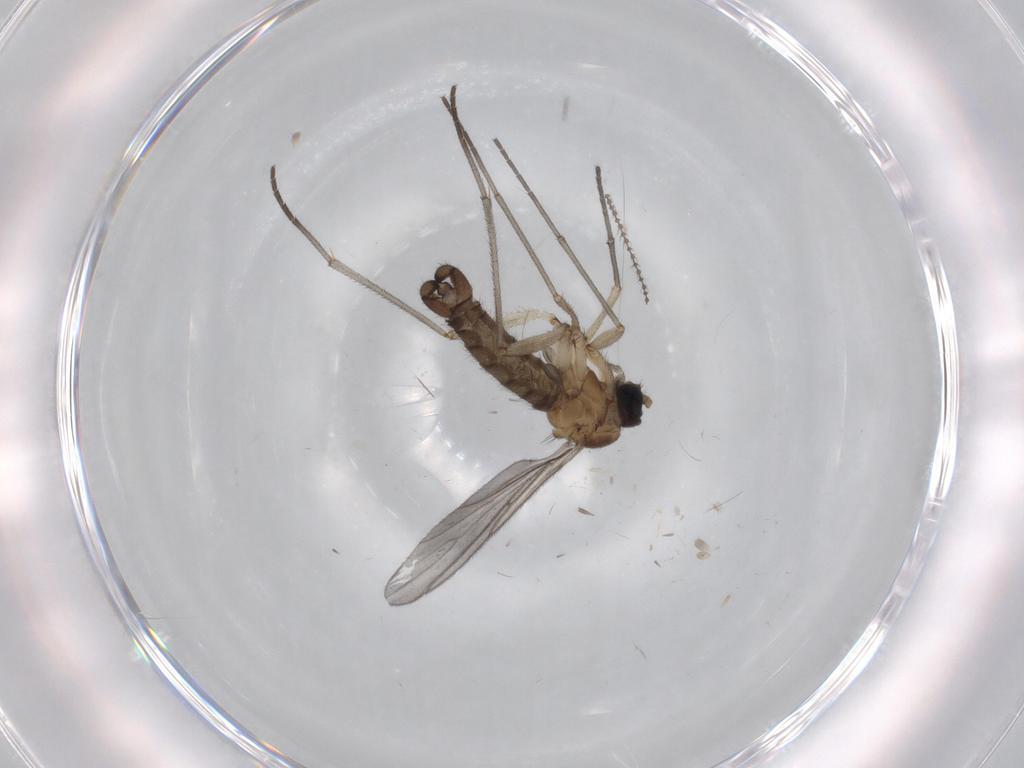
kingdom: Animalia
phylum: Arthropoda
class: Insecta
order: Diptera
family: Sciaridae
